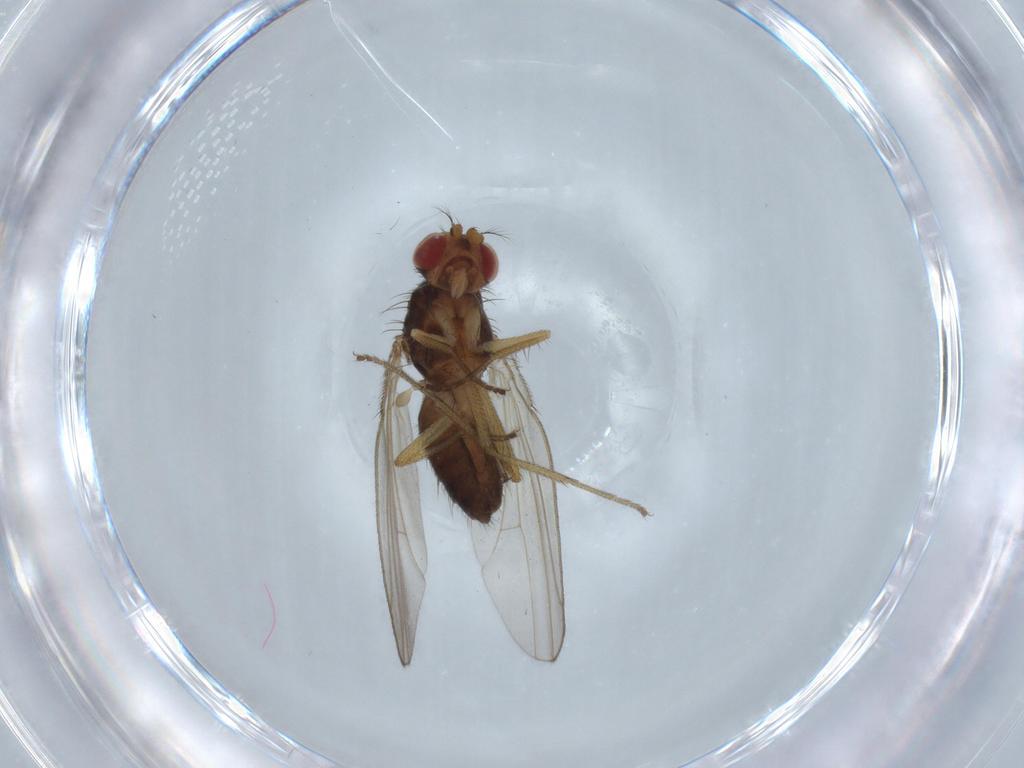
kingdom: Animalia
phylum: Arthropoda
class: Insecta
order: Diptera
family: Drosophilidae
